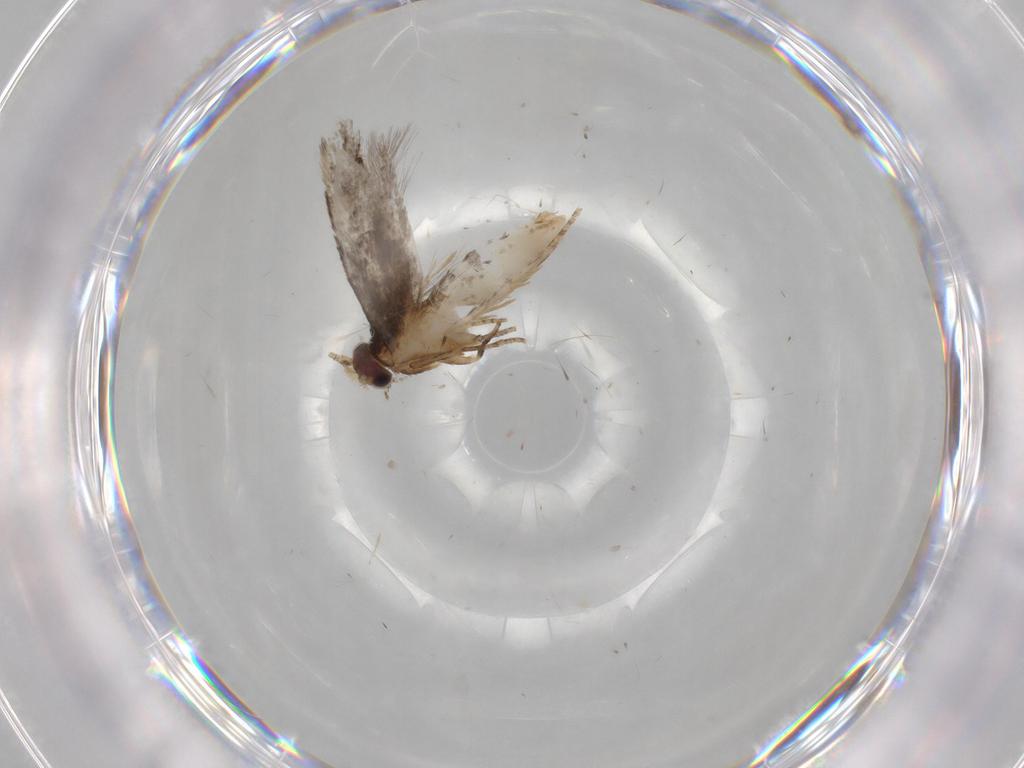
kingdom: Animalia
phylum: Arthropoda
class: Insecta
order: Lepidoptera
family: Tineidae
